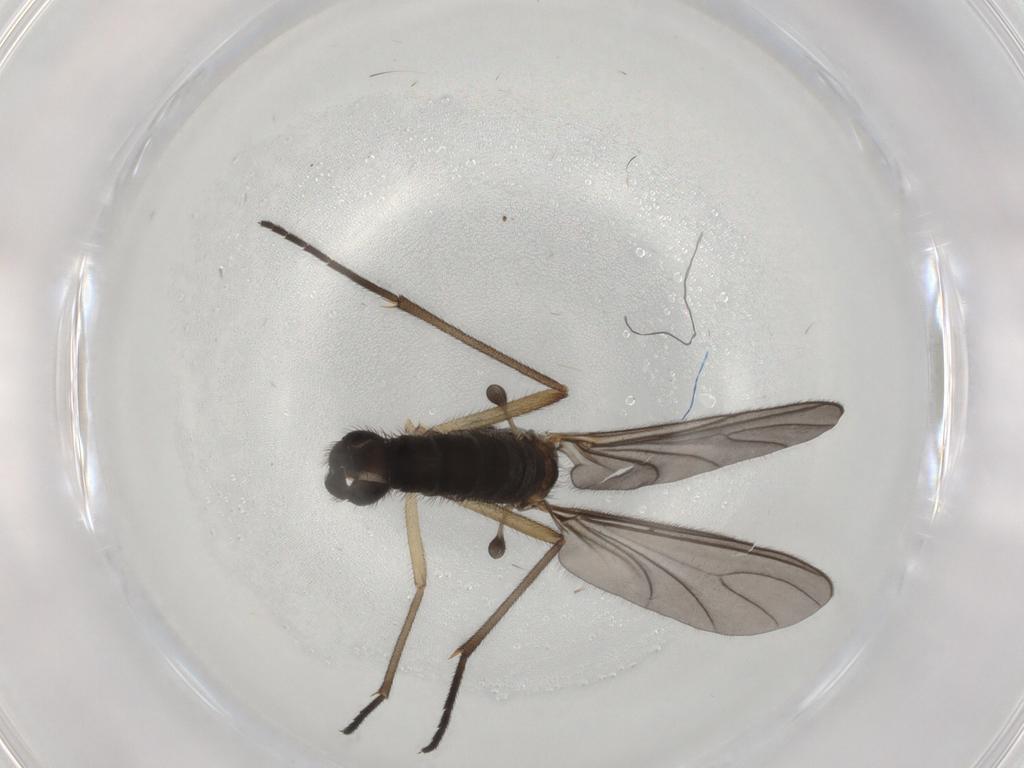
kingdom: Animalia
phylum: Arthropoda
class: Insecta
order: Diptera
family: Sciaridae
